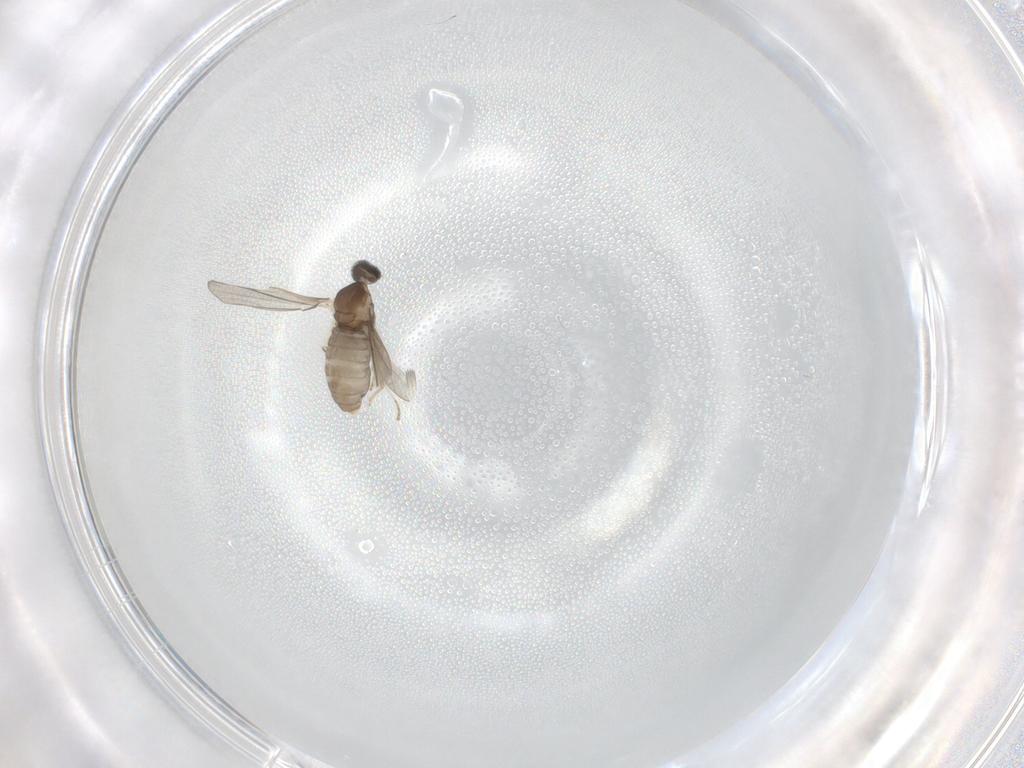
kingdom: Animalia
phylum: Arthropoda
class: Insecta
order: Diptera
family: Cecidomyiidae
